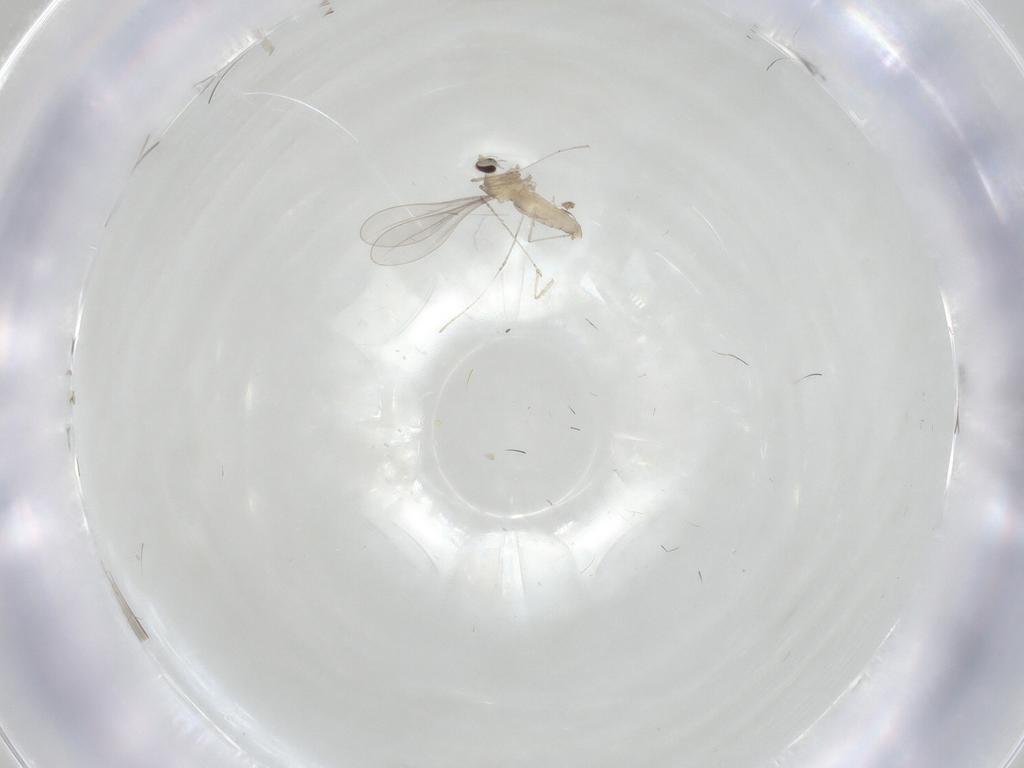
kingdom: Animalia
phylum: Arthropoda
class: Insecta
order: Diptera
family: Cecidomyiidae
